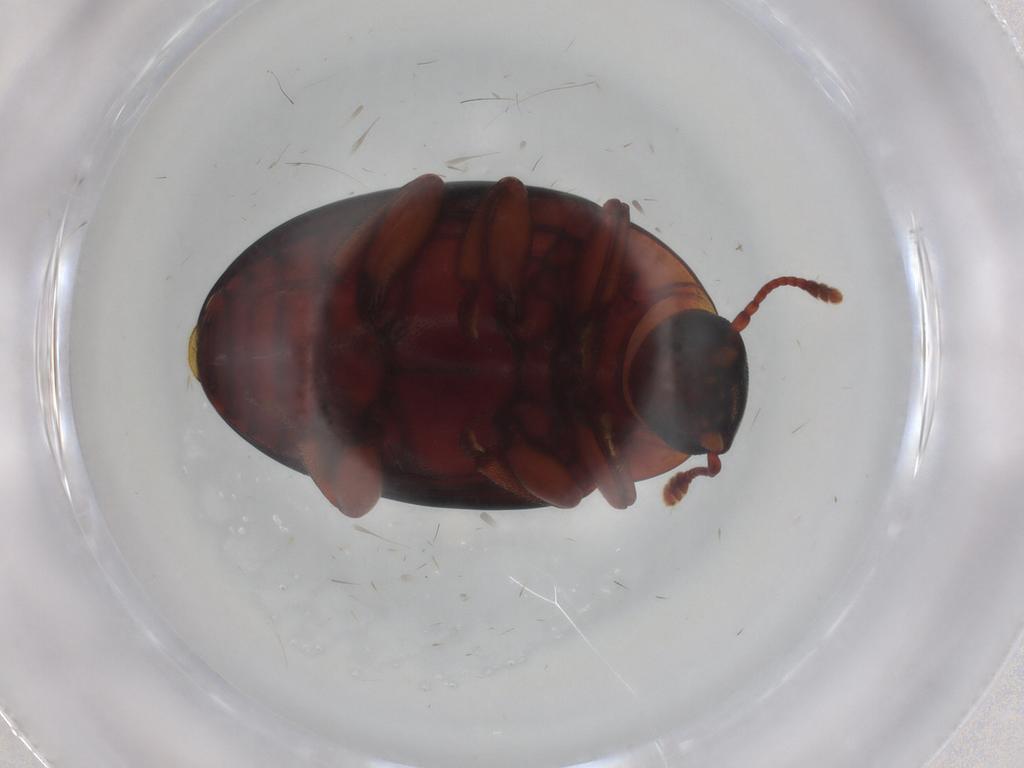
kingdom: Animalia
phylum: Arthropoda
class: Insecta
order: Coleoptera
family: Zopheridae
